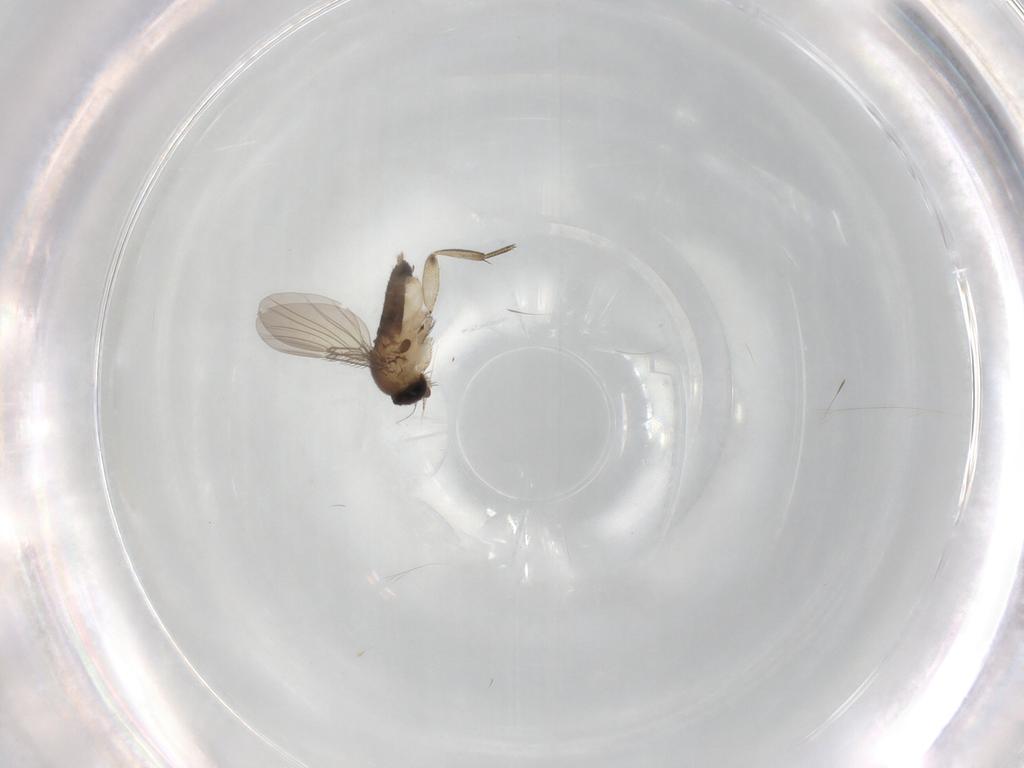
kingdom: Animalia
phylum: Arthropoda
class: Insecta
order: Diptera
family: Phoridae
